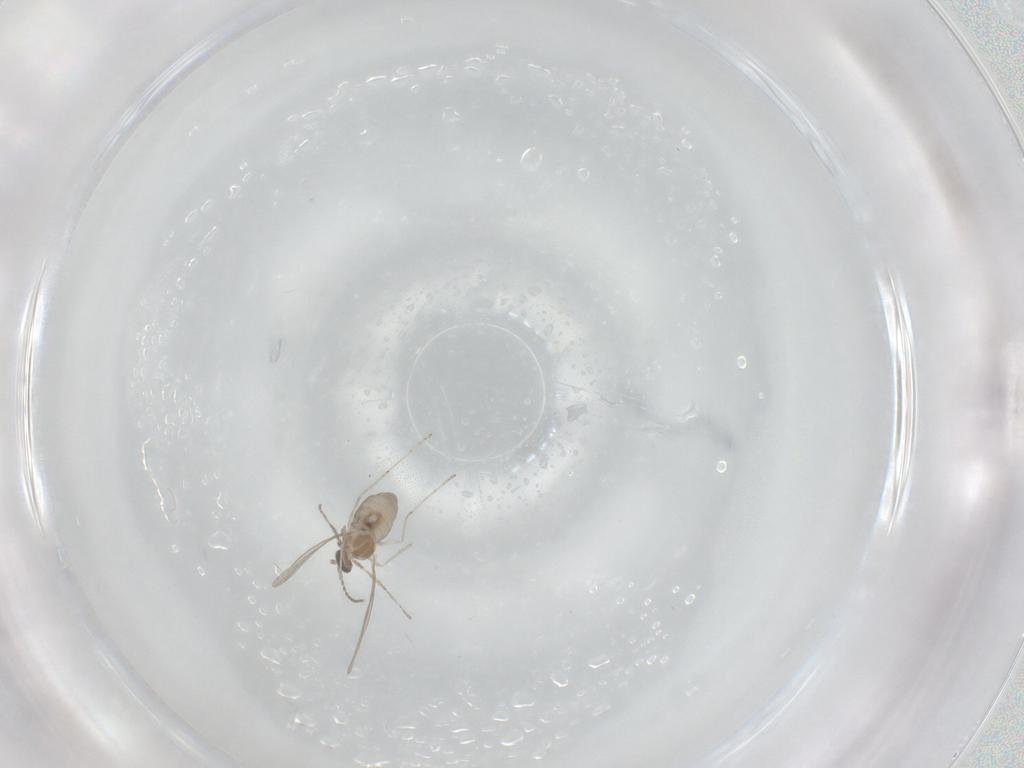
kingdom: Animalia
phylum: Arthropoda
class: Insecta
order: Diptera
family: Cecidomyiidae
